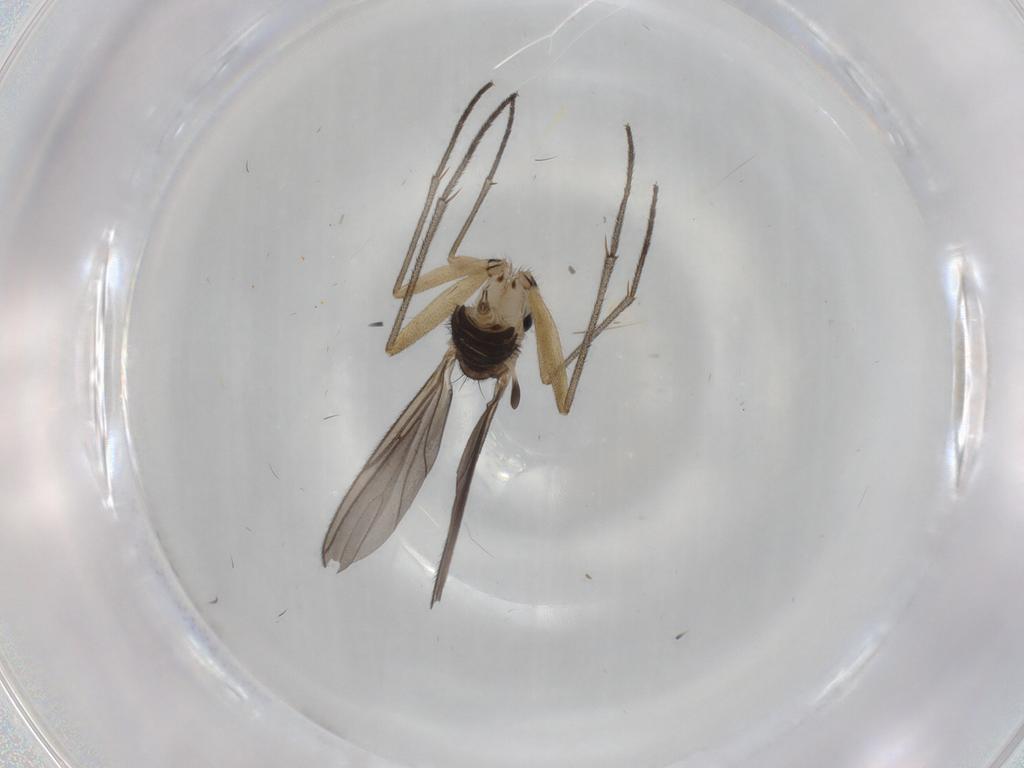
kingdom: Animalia
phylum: Arthropoda
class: Insecta
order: Diptera
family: Sciaridae
